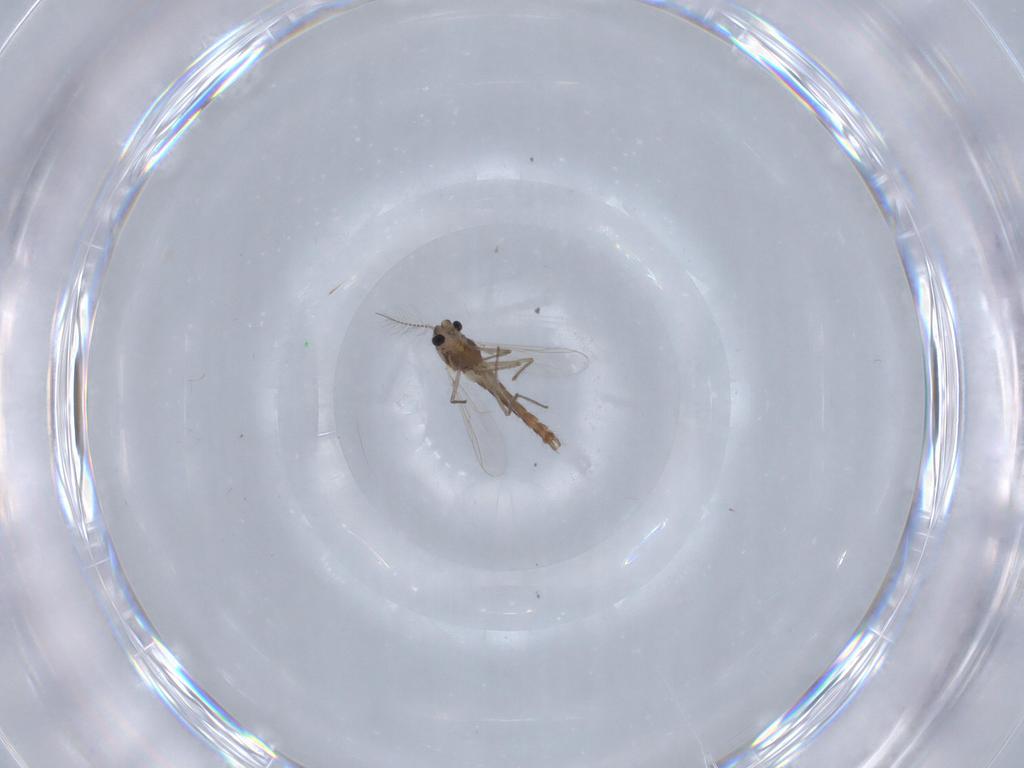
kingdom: Animalia
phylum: Arthropoda
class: Insecta
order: Diptera
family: Chironomidae
